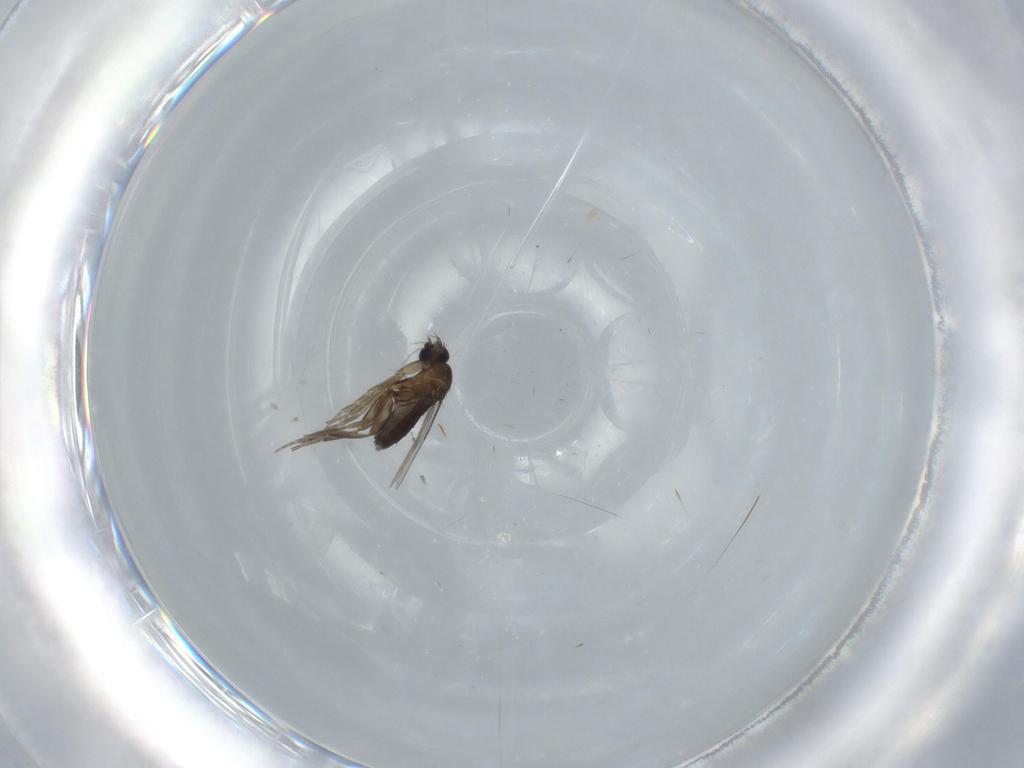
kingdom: Animalia
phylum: Arthropoda
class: Insecta
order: Diptera
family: Phoridae
